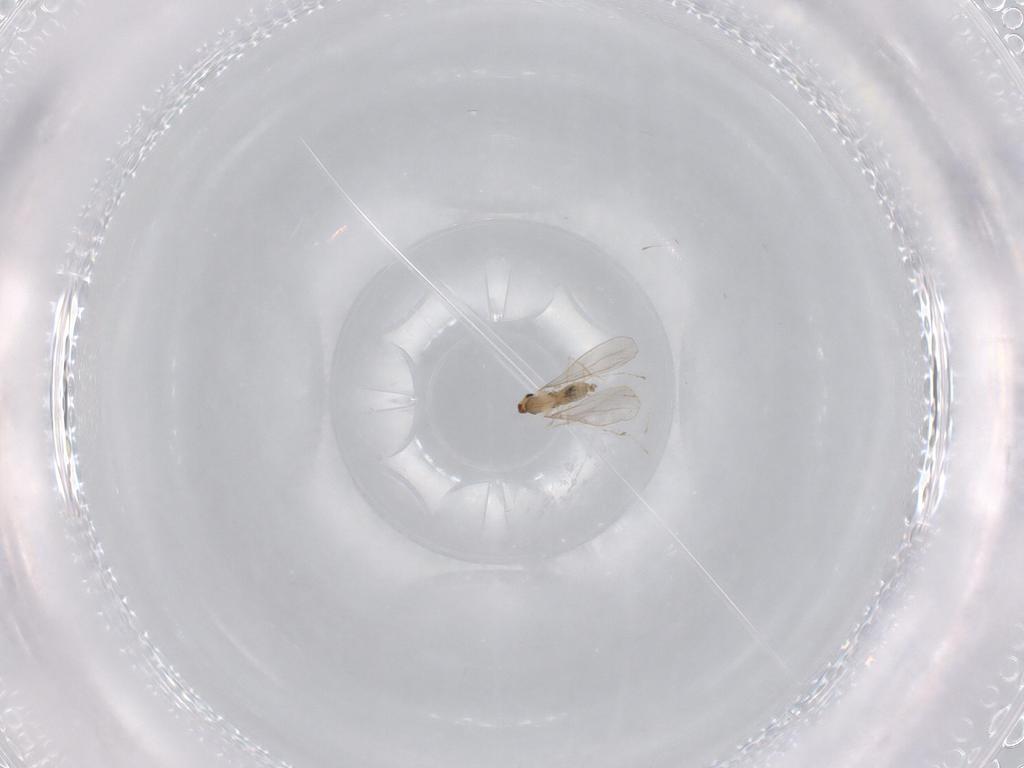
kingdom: Animalia
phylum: Arthropoda
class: Insecta
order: Diptera
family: Cecidomyiidae
